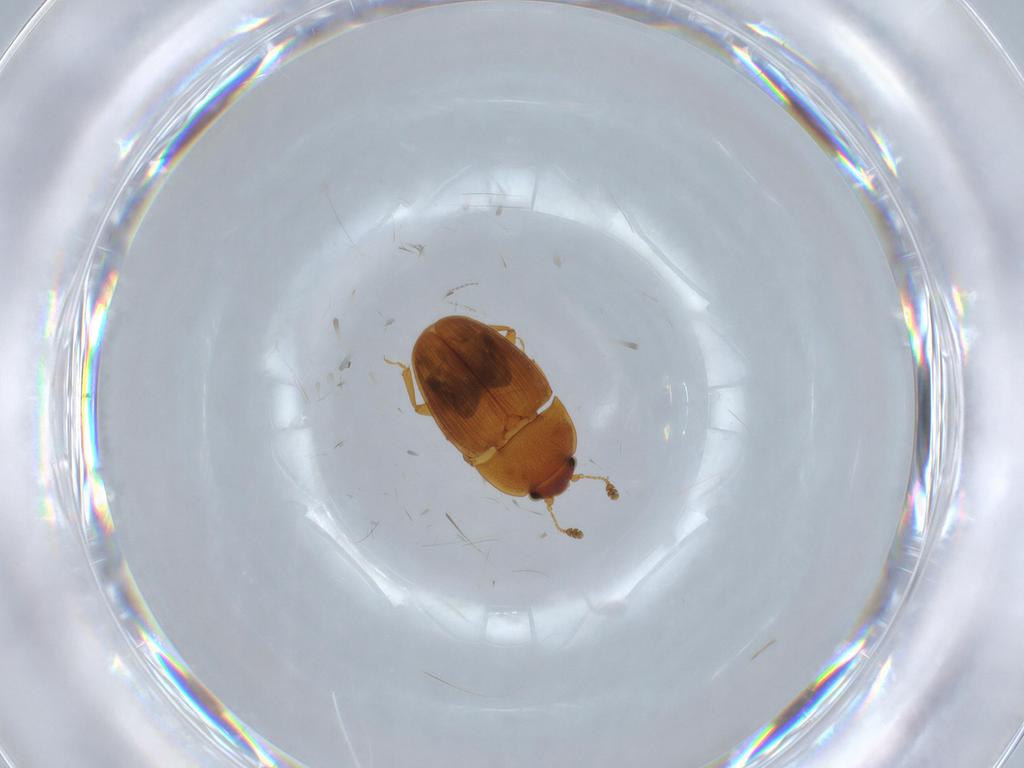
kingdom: Animalia
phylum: Arthropoda
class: Insecta
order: Coleoptera
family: Nitidulidae
